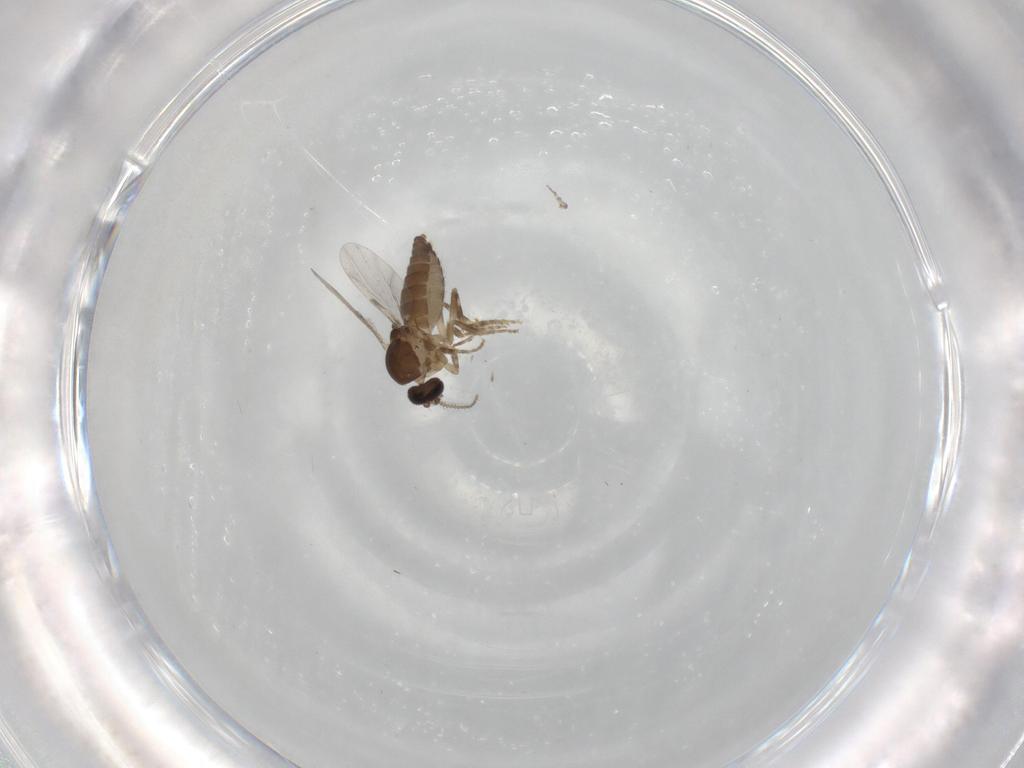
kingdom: Animalia
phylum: Arthropoda
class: Insecta
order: Diptera
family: Ceratopogonidae
